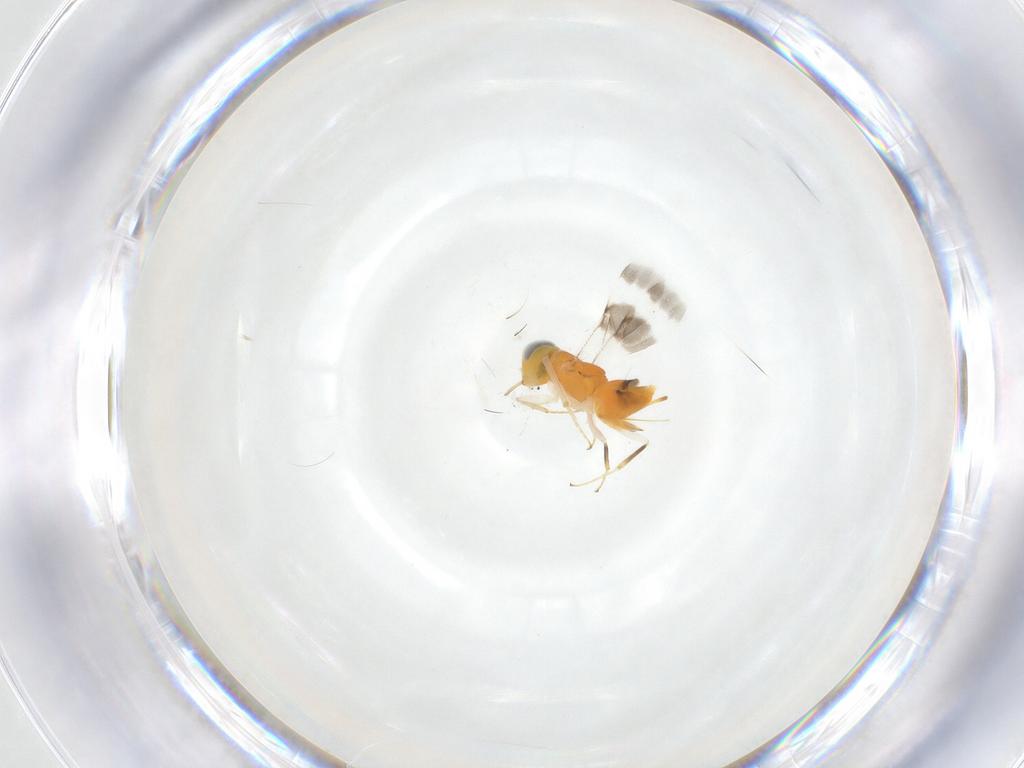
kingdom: Animalia
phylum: Arthropoda
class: Insecta
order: Hymenoptera
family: Encyrtidae
